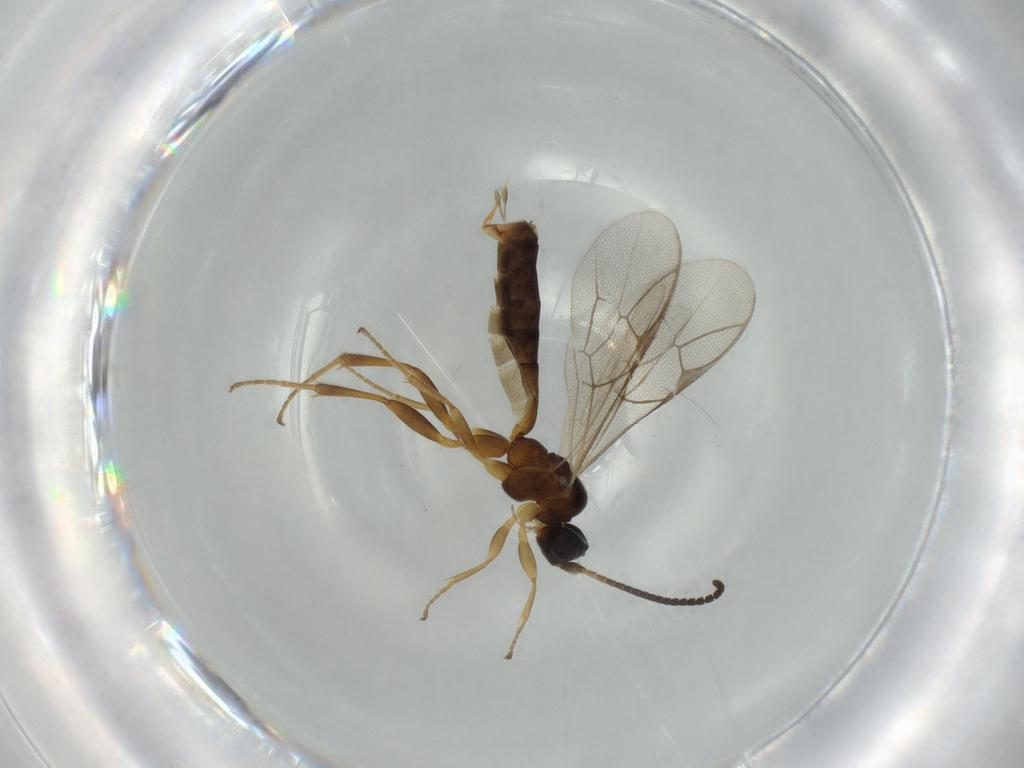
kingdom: Animalia
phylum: Arthropoda
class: Insecta
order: Hymenoptera
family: Ichneumonidae
